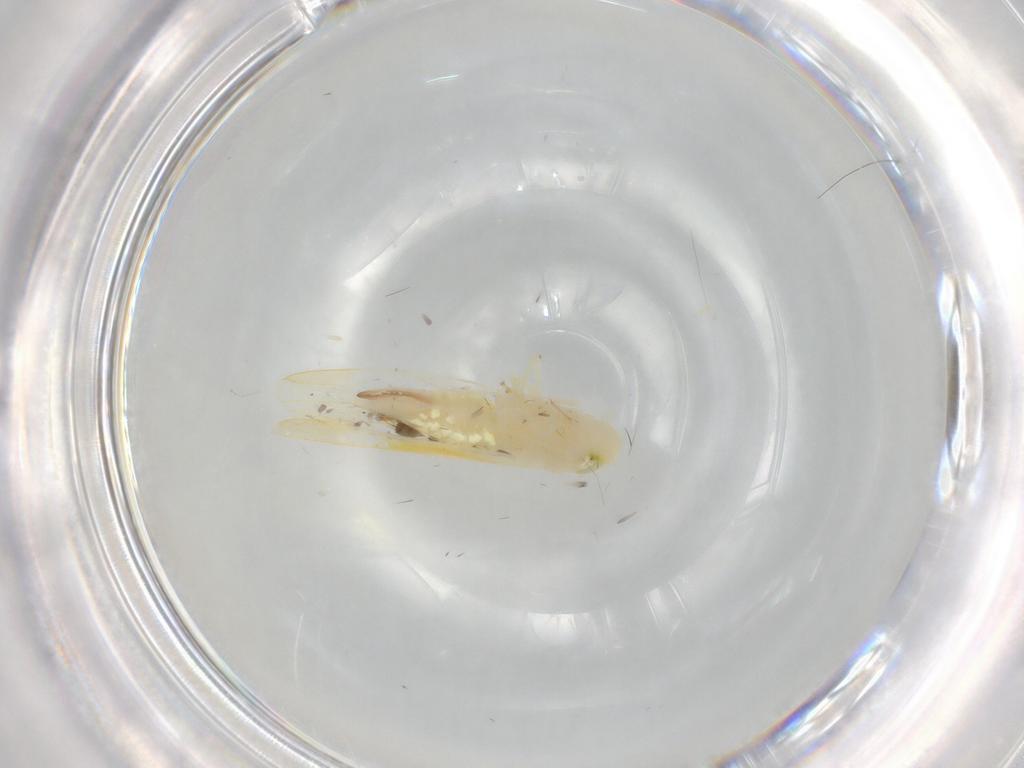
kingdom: Animalia
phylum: Arthropoda
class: Insecta
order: Hemiptera
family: Cicadellidae
